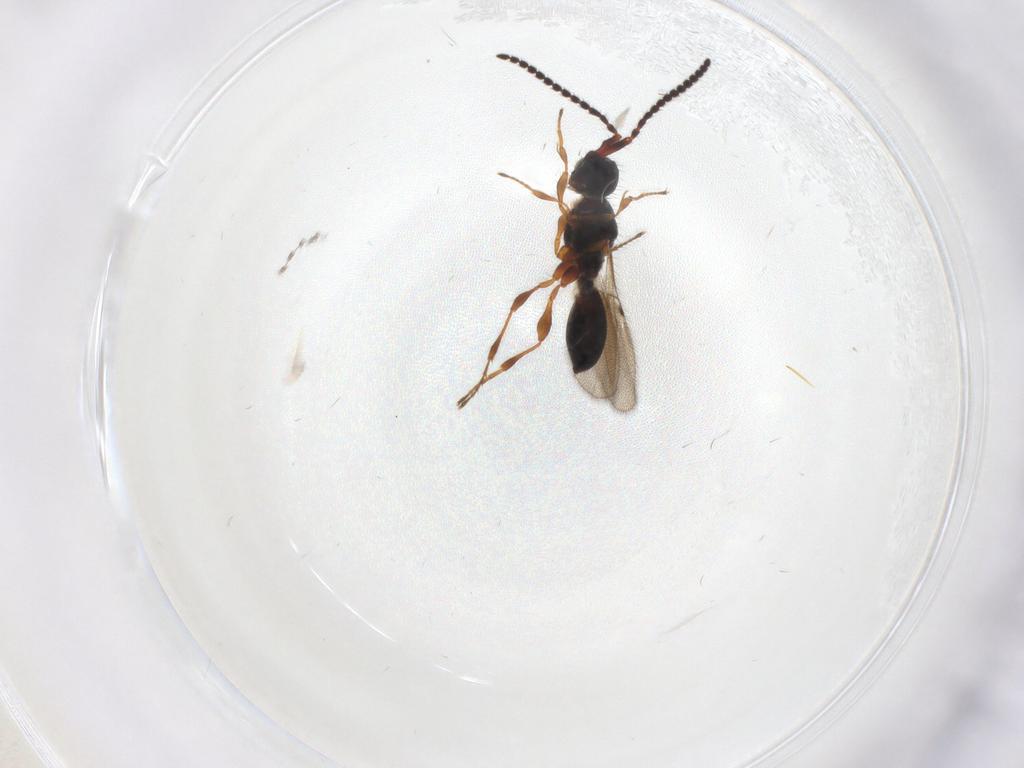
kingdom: Animalia
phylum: Arthropoda
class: Insecta
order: Hymenoptera
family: Diapriidae
